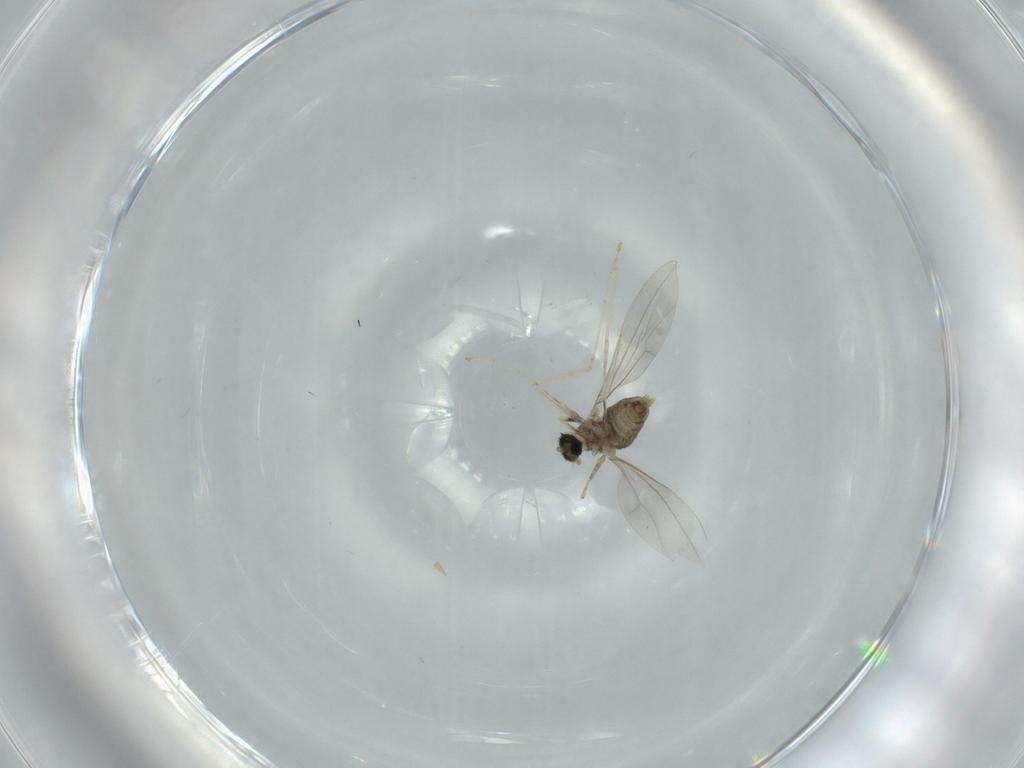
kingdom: Animalia
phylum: Arthropoda
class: Insecta
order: Diptera
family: Cecidomyiidae
